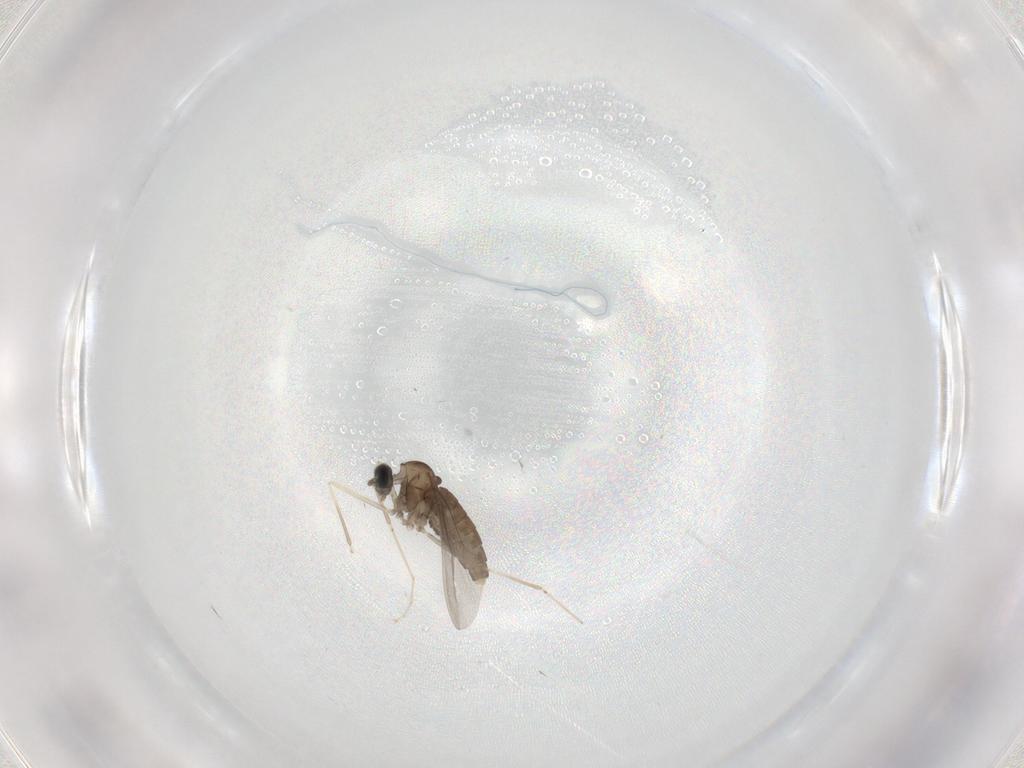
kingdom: Animalia
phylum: Arthropoda
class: Insecta
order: Diptera
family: Cecidomyiidae
